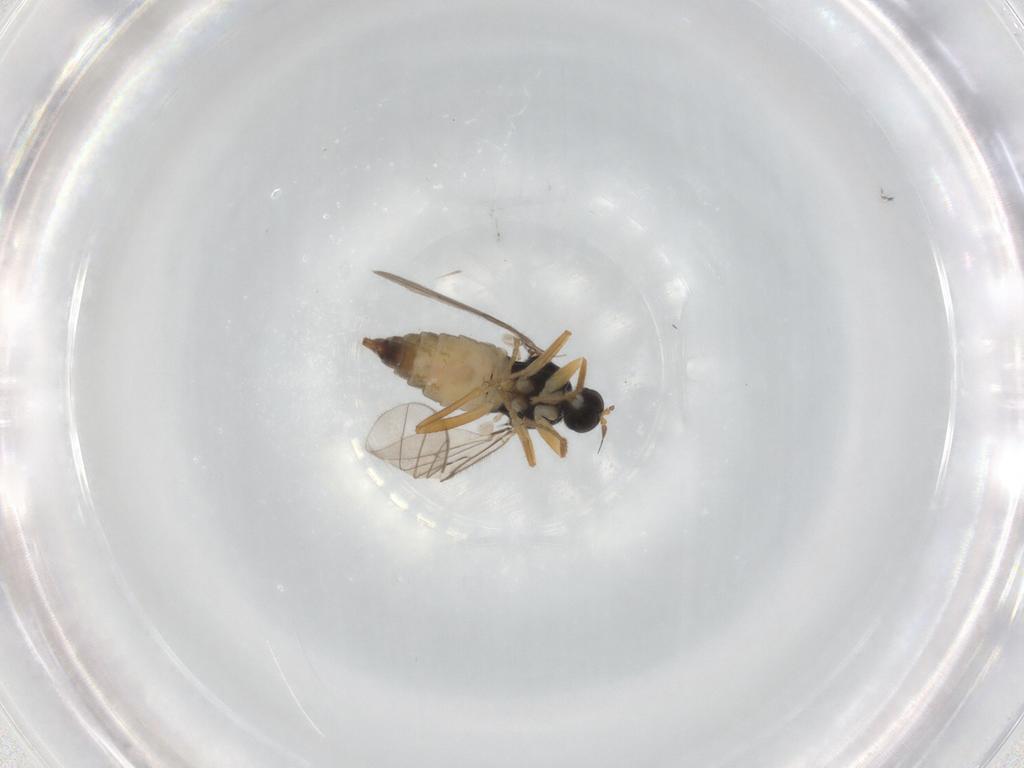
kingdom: Animalia
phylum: Arthropoda
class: Insecta
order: Diptera
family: Hybotidae
